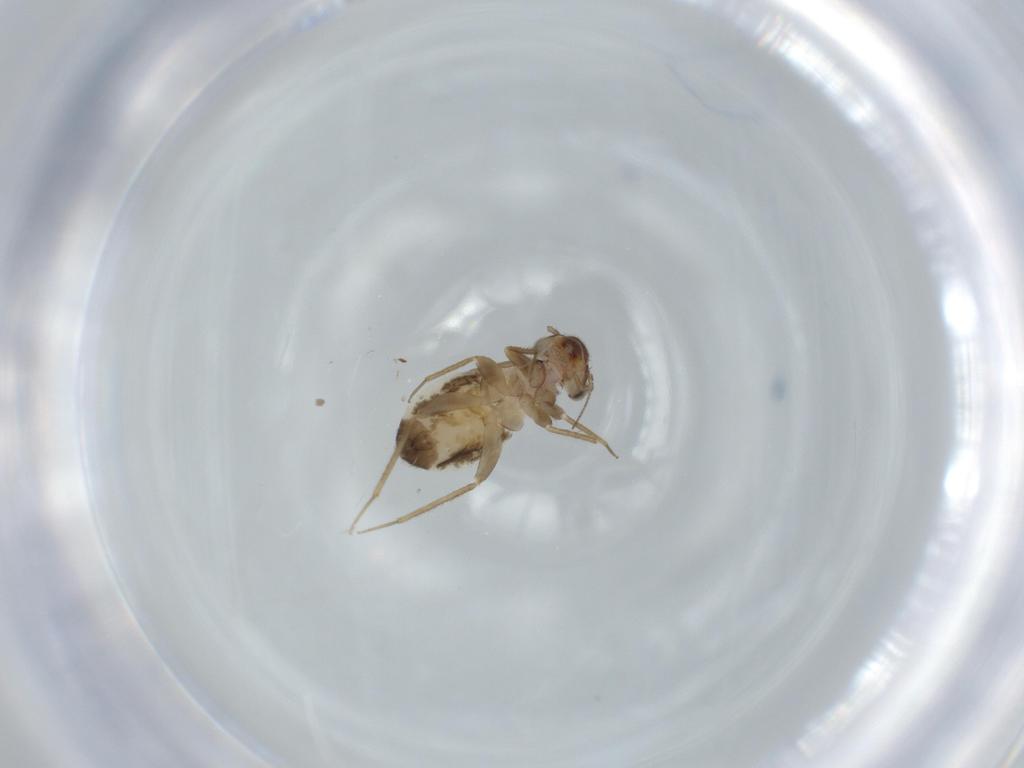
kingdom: Animalia
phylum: Arthropoda
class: Insecta
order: Psocodea
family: Lepidopsocidae
